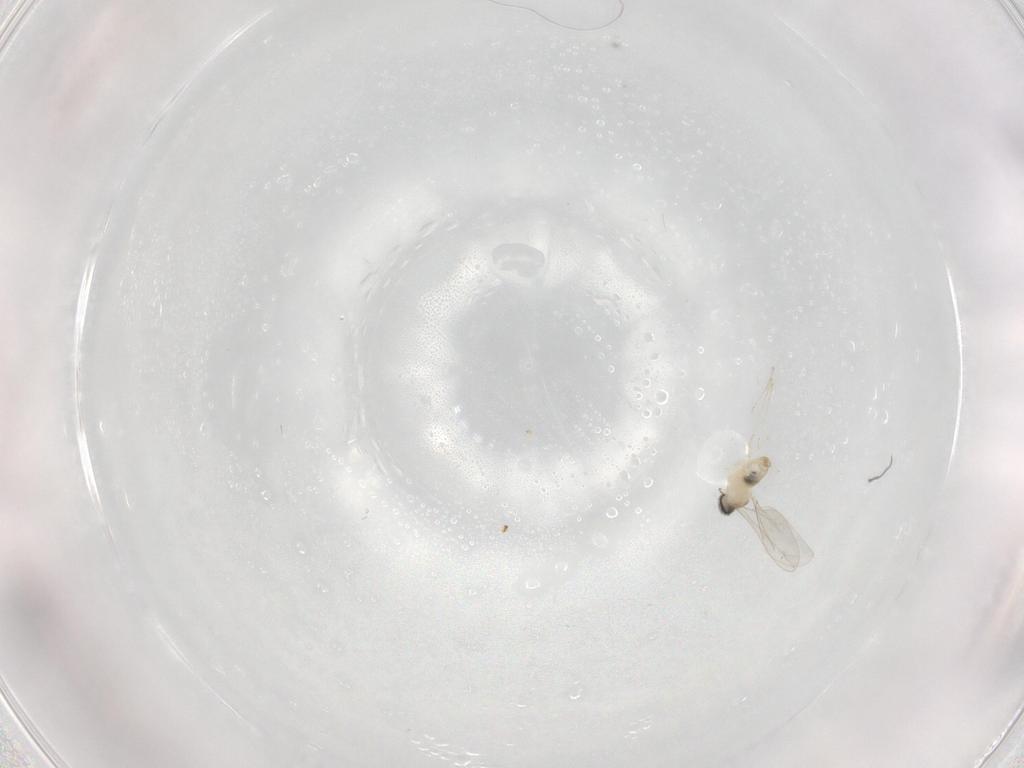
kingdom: Animalia
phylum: Arthropoda
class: Insecta
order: Diptera
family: Cecidomyiidae
